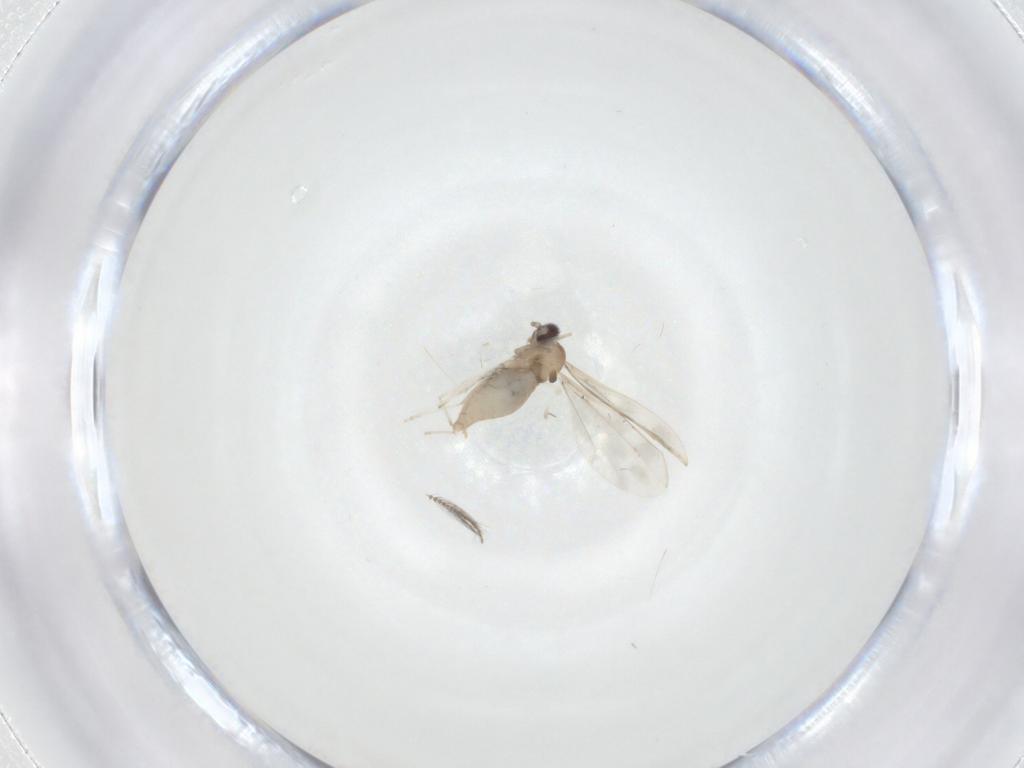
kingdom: Animalia
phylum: Arthropoda
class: Insecta
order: Diptera
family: Cecidomyiidae
